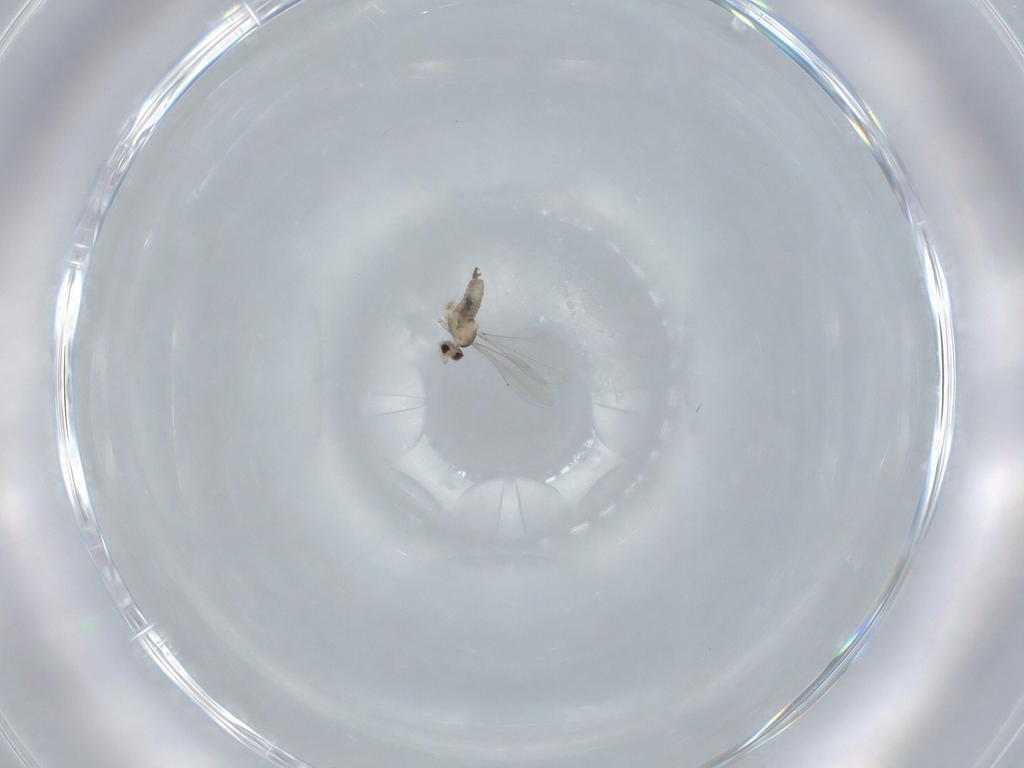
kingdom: Animalia
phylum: Arthropoda
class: Insecta
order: Diptera
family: Cecidomyiidae
